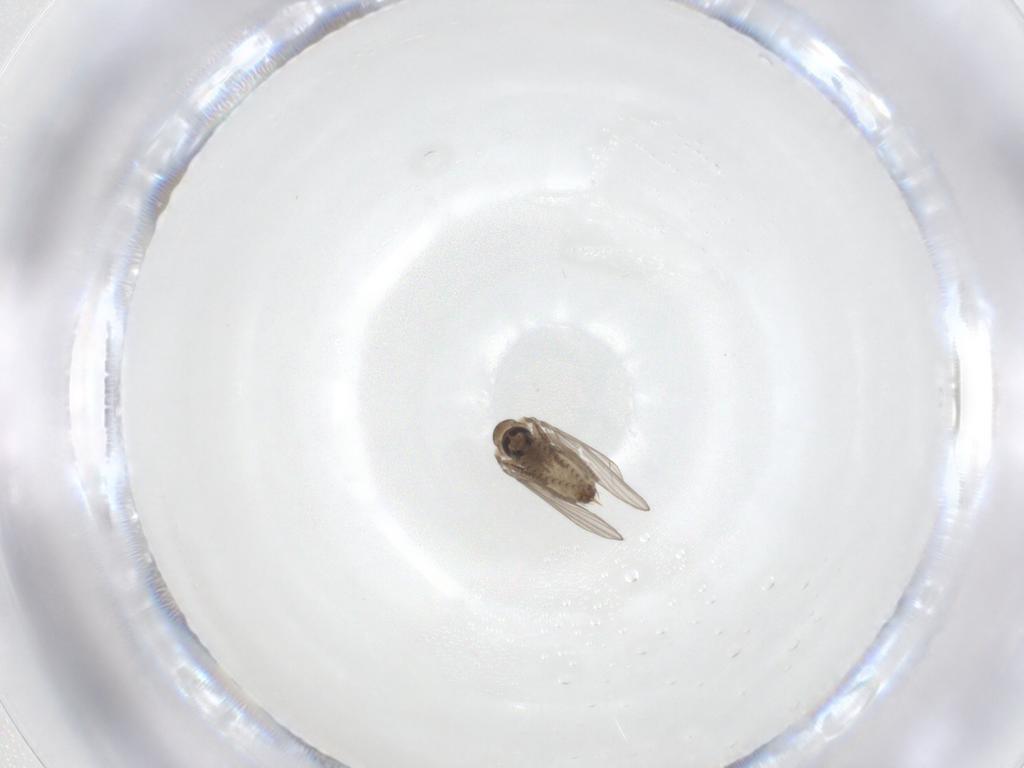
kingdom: Animalia
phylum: Arthropoda
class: Insecta
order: Diptera
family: Psychodidae
